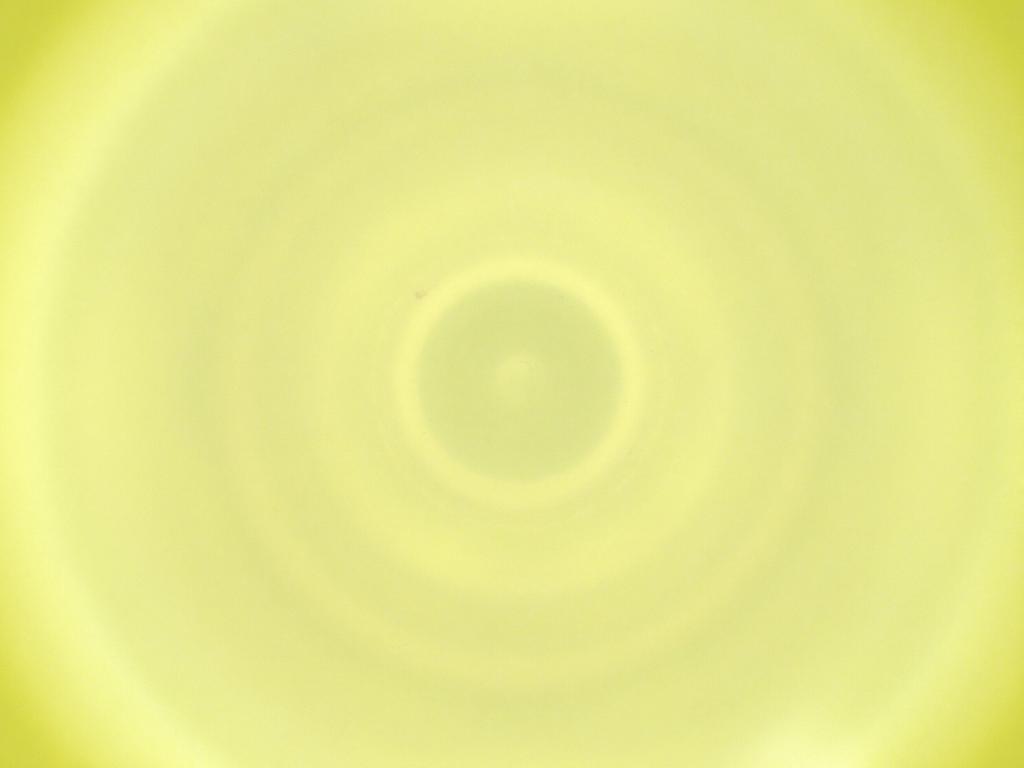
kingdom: Animalia
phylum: Arthropoda
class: Insecta
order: Diptera
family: Cecidomyiidae
